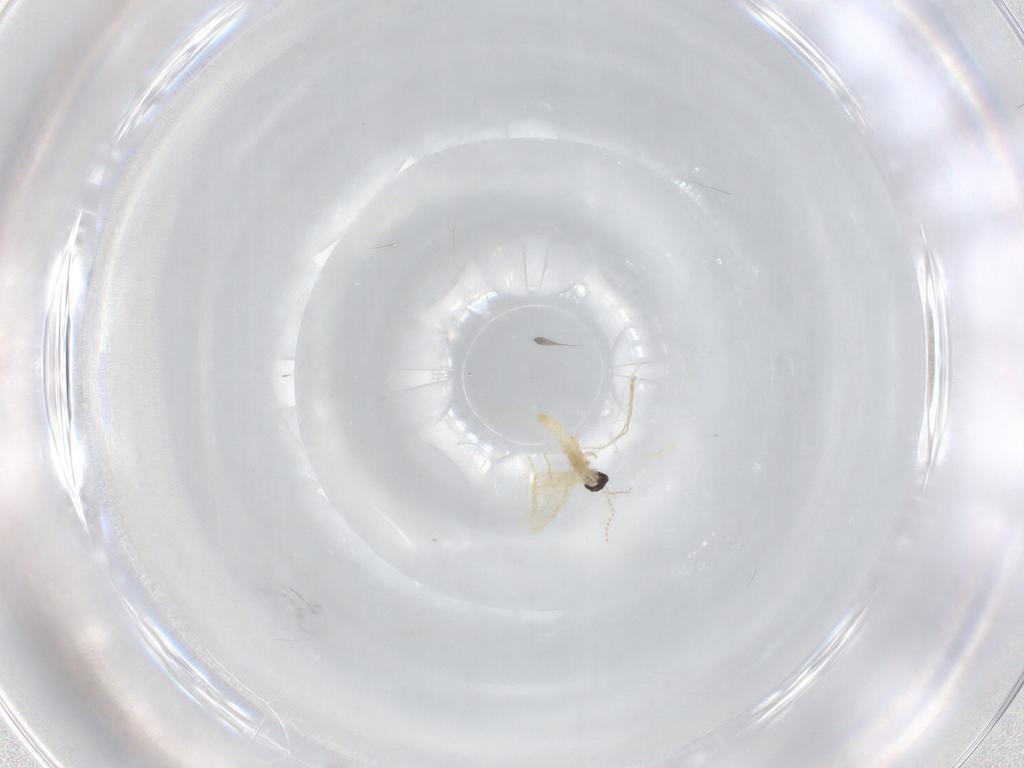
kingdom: Animalia
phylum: Arthropoda
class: Insecta
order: Diptera
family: Cecidomyiidae
